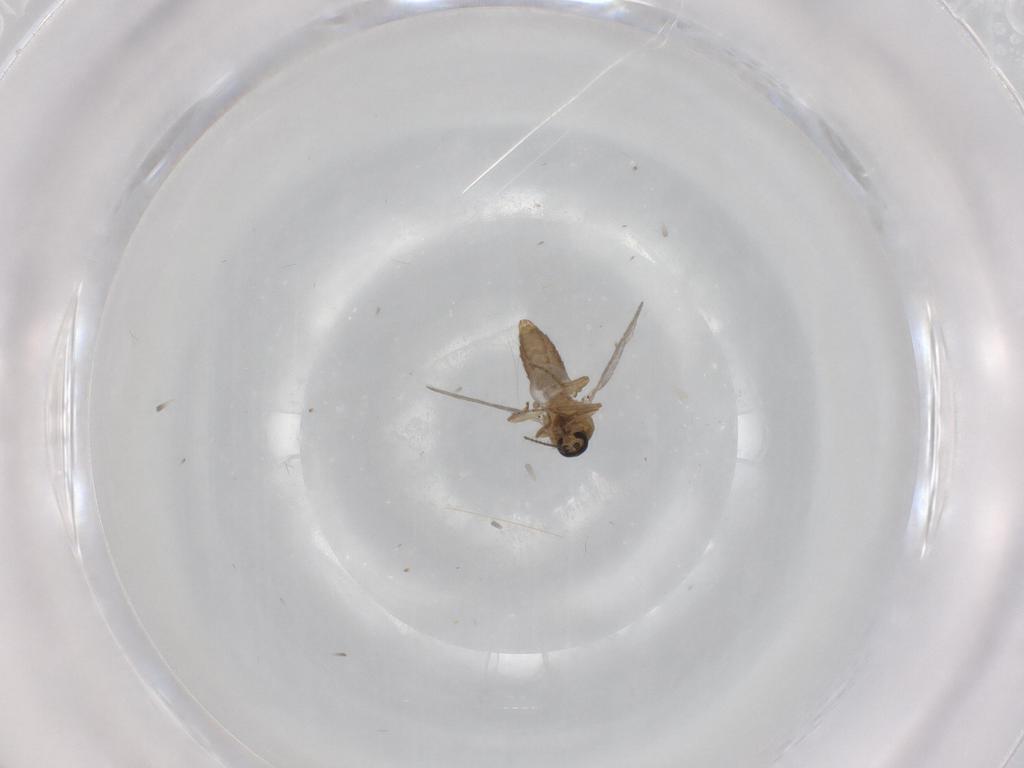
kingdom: Animalia
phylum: Arthropoda
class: Insecta
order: Diptera
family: Ceratopogonidae
